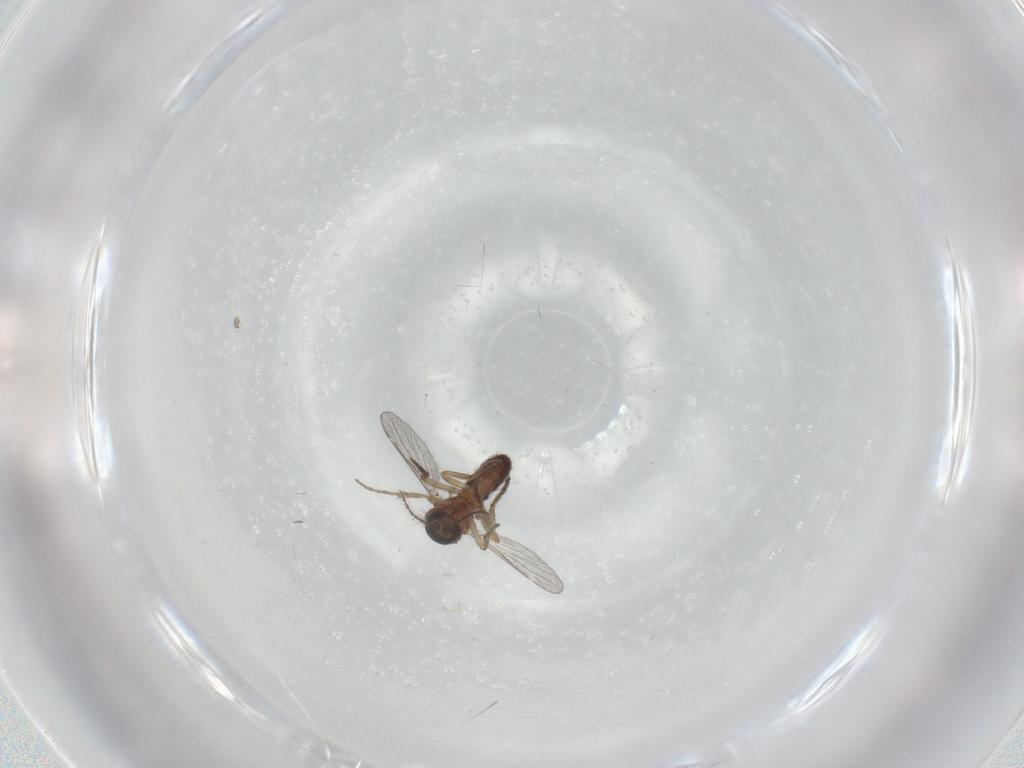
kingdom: Animalia
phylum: Arthropoda
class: Insecta
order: Diptera
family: Ceratopogonidae
